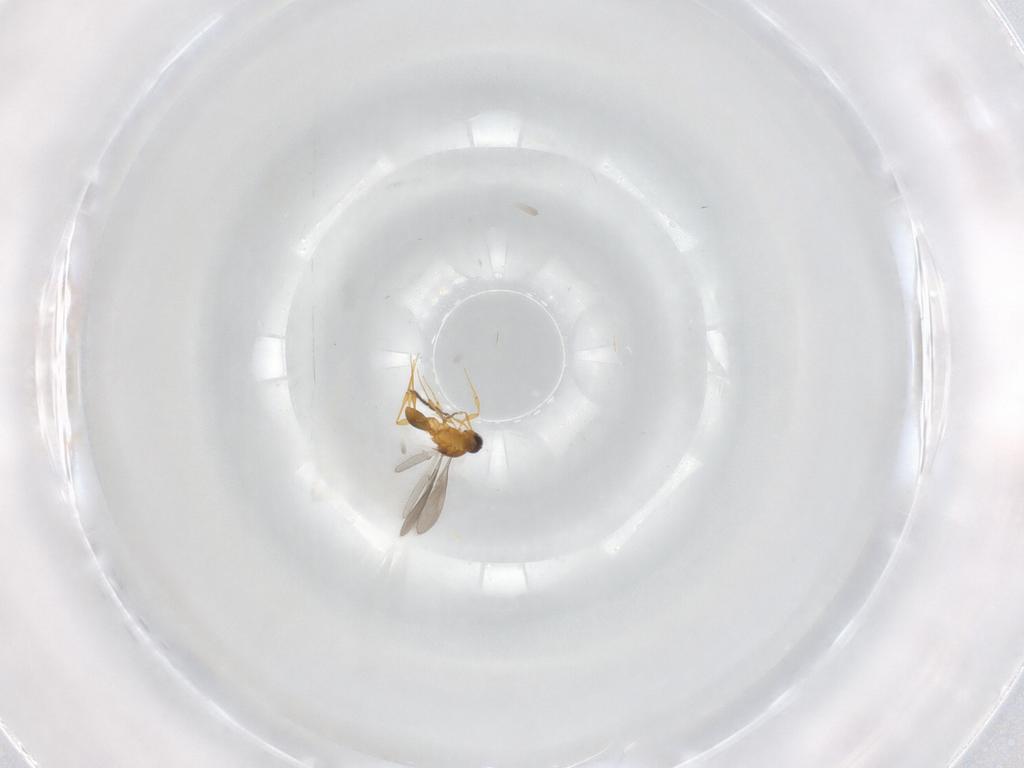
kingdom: Animalia
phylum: Arthropoda
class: Insecta
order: Hymenoptera
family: Platygastridae
